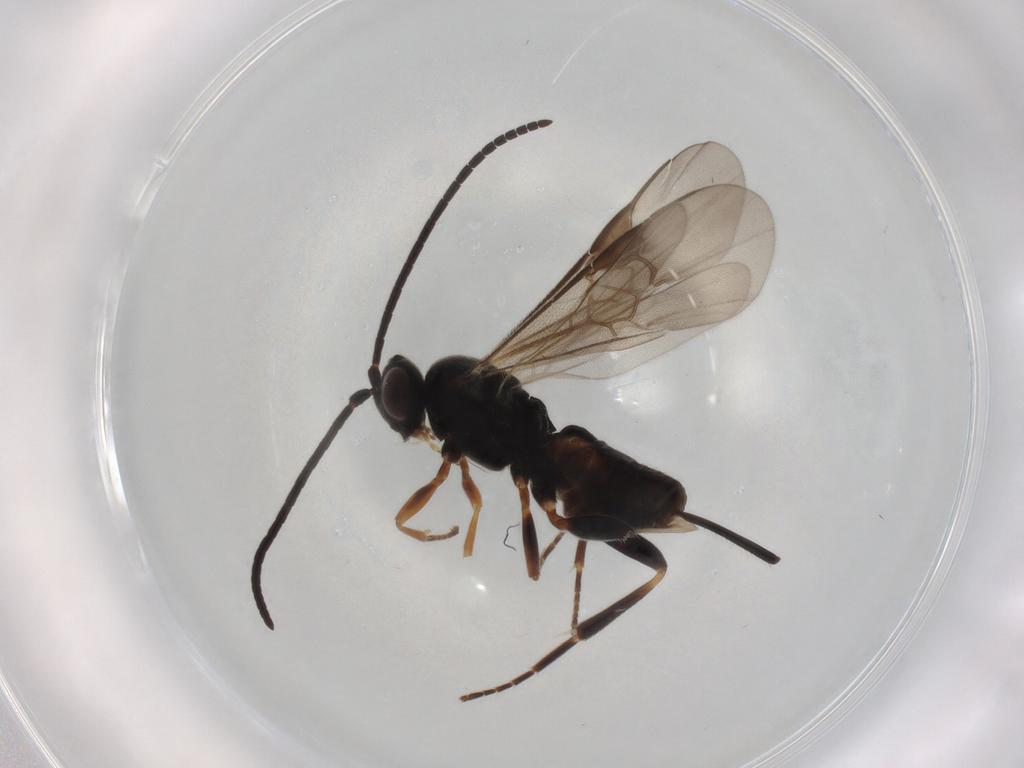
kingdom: Animalia
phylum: Arthropoda
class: Insecta
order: Hymenoptera
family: Braconidae
